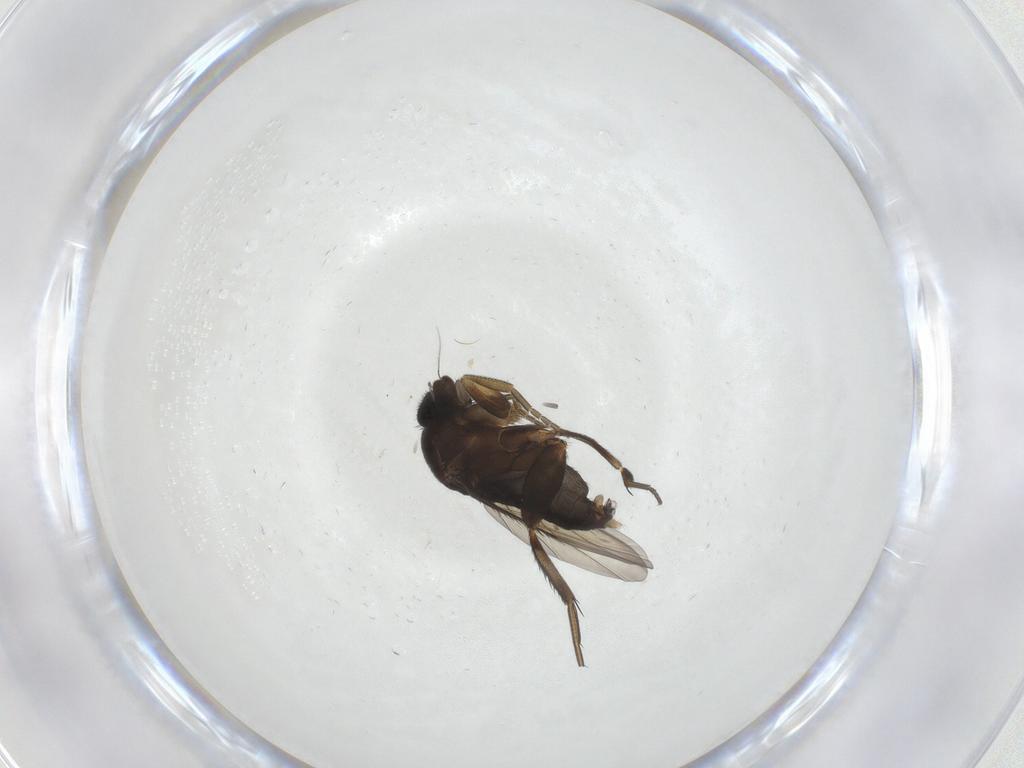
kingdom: Animalia
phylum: Arthropoda
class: Insecta
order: Diptera
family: Phoridae
